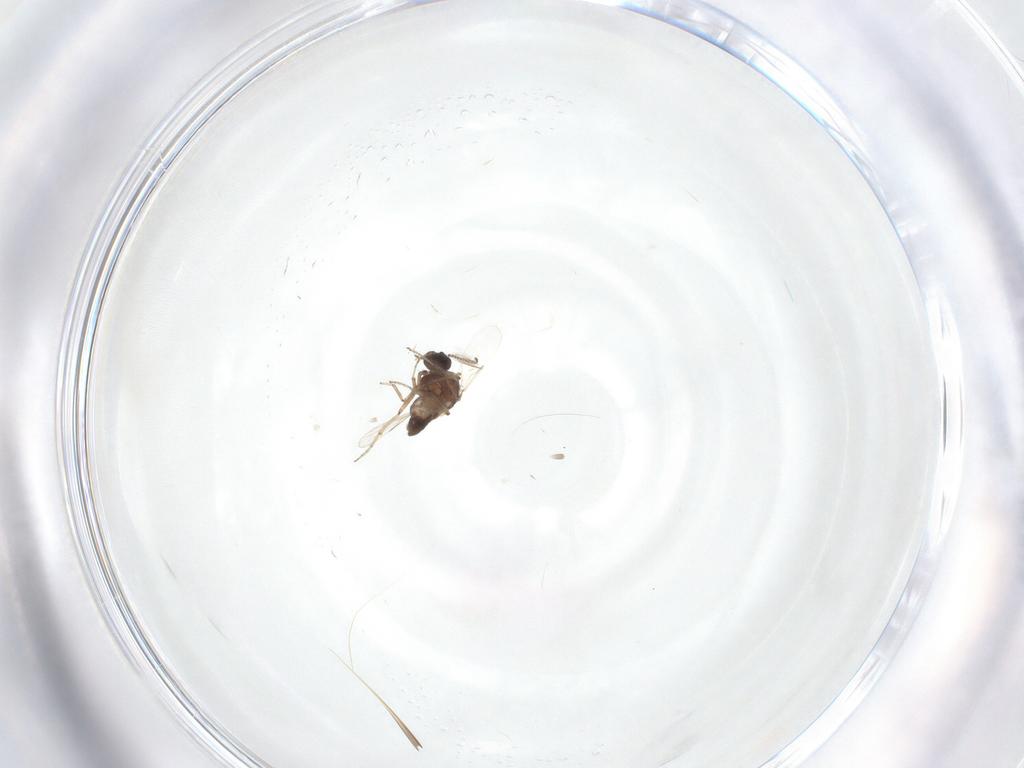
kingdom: Animalia
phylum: Arthropoda
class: Insecta
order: Diptera
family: Ceratopogonidae
